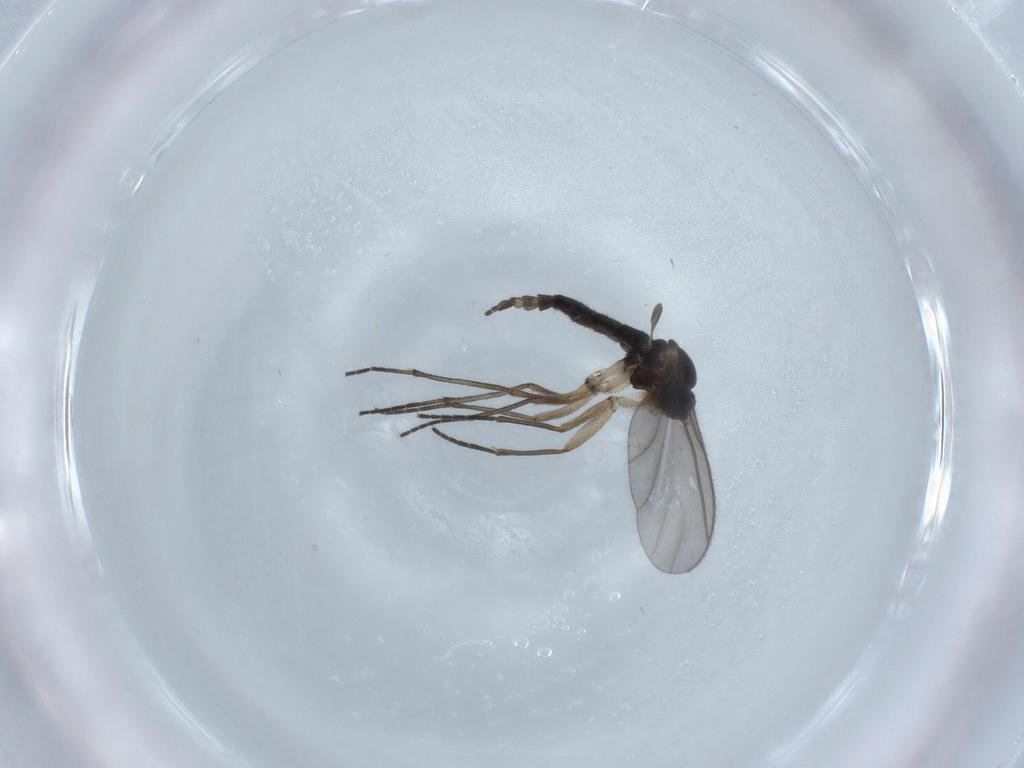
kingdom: Animalia
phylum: Arthropoda
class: Insecta
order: Diptera
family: Sciaridae
